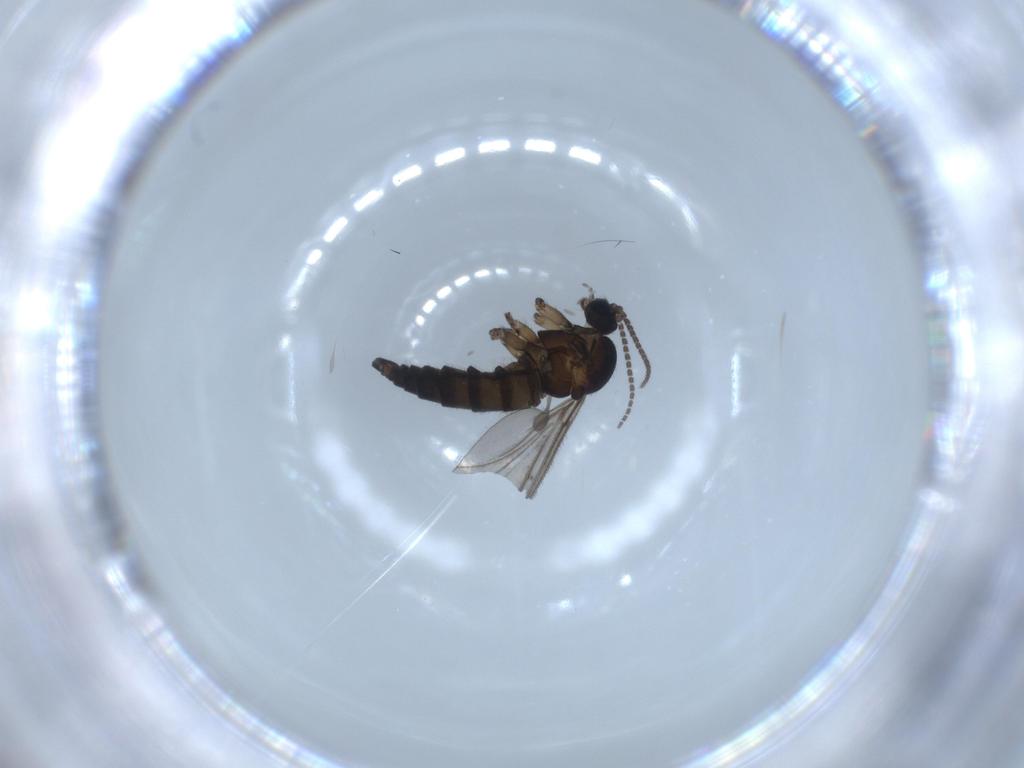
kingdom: Animalia
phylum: Arthropoda
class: Insecta
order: Diptera
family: Sciaridae
